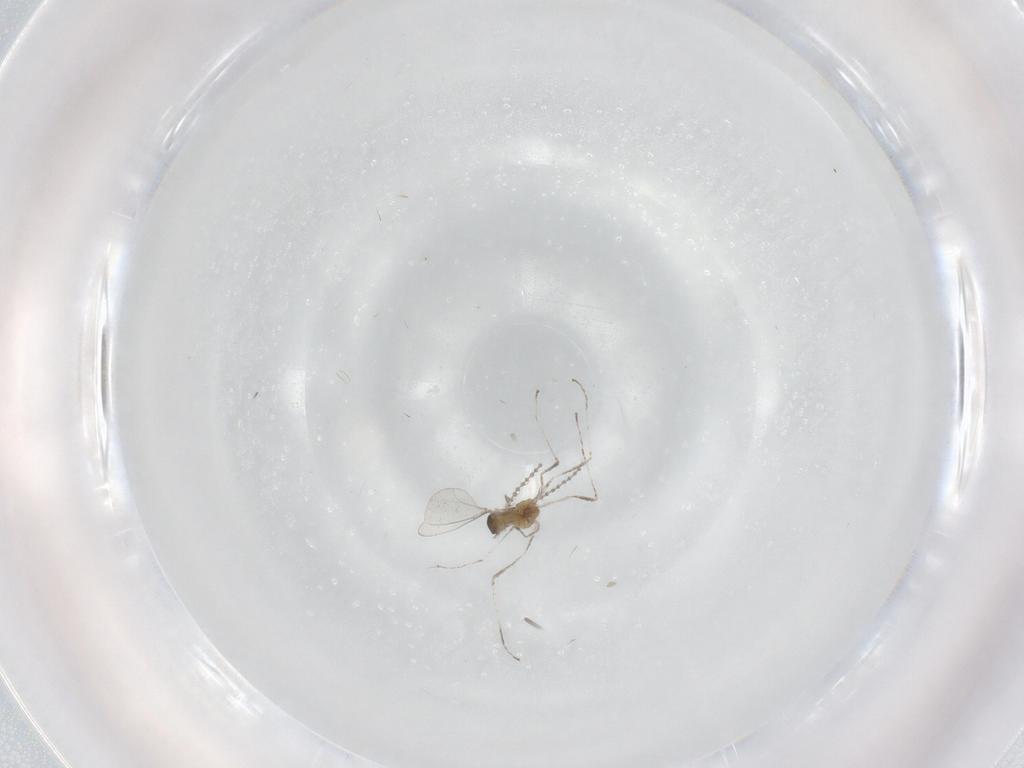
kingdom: Animalia
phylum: Arthropoda
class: Insecta
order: Diptera
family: Cecidomyiidae
